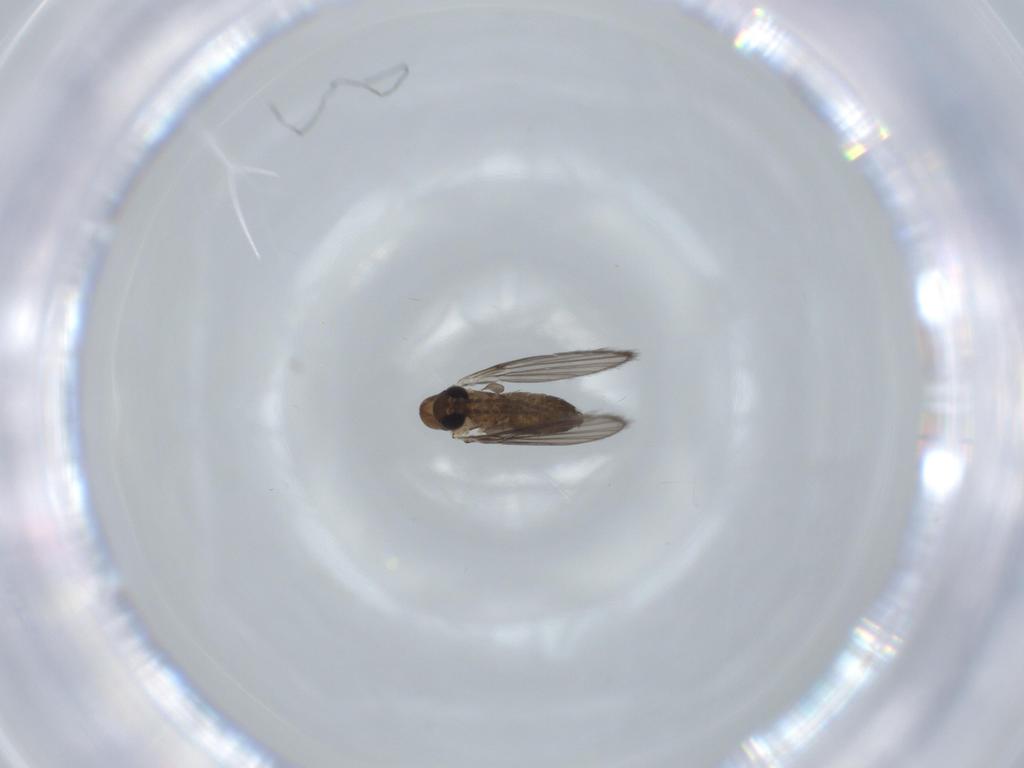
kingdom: Animalia
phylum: Arthropoda
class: Insecta
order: Diptera
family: Psychodidae
